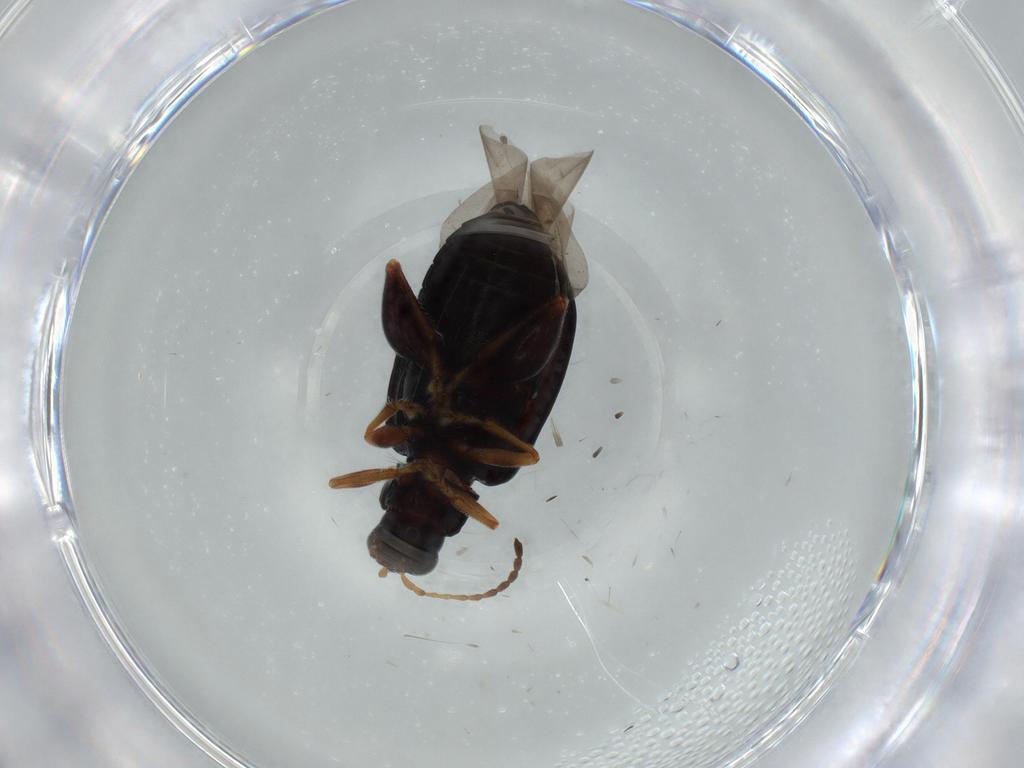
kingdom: Animalia
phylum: Arthropoda
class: Insecta
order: Coleoptera
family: Chrysomelidae
